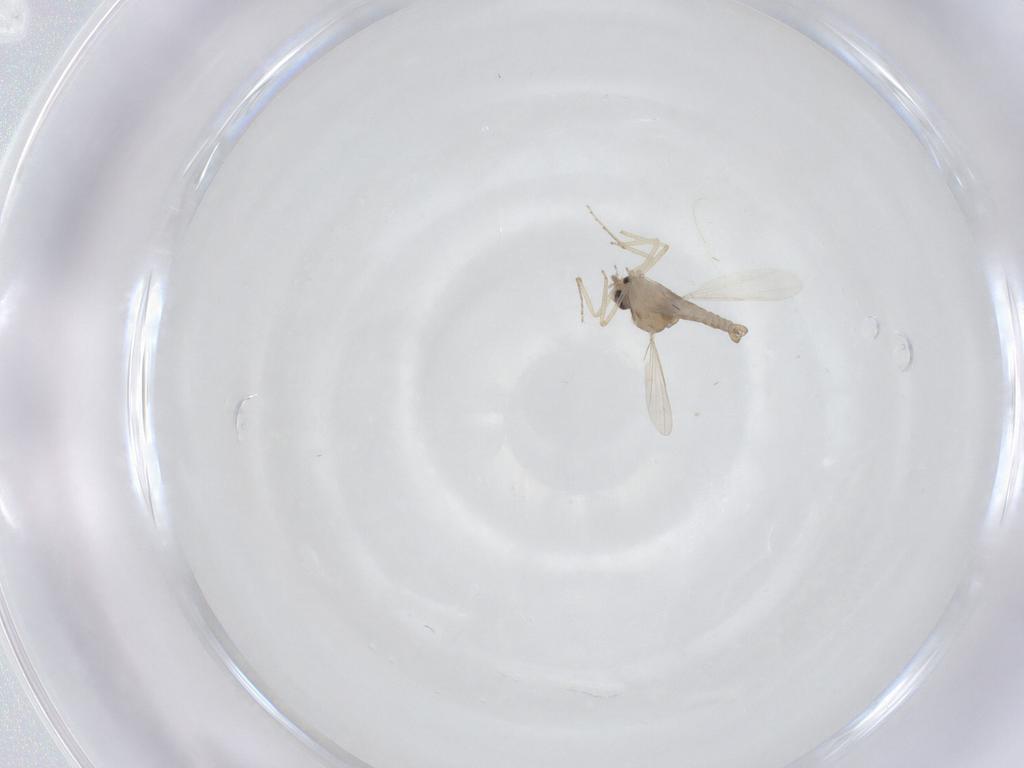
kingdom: Animalia
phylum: Arthropoda
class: Insecta
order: Diptera
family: Ceratopogonidae
